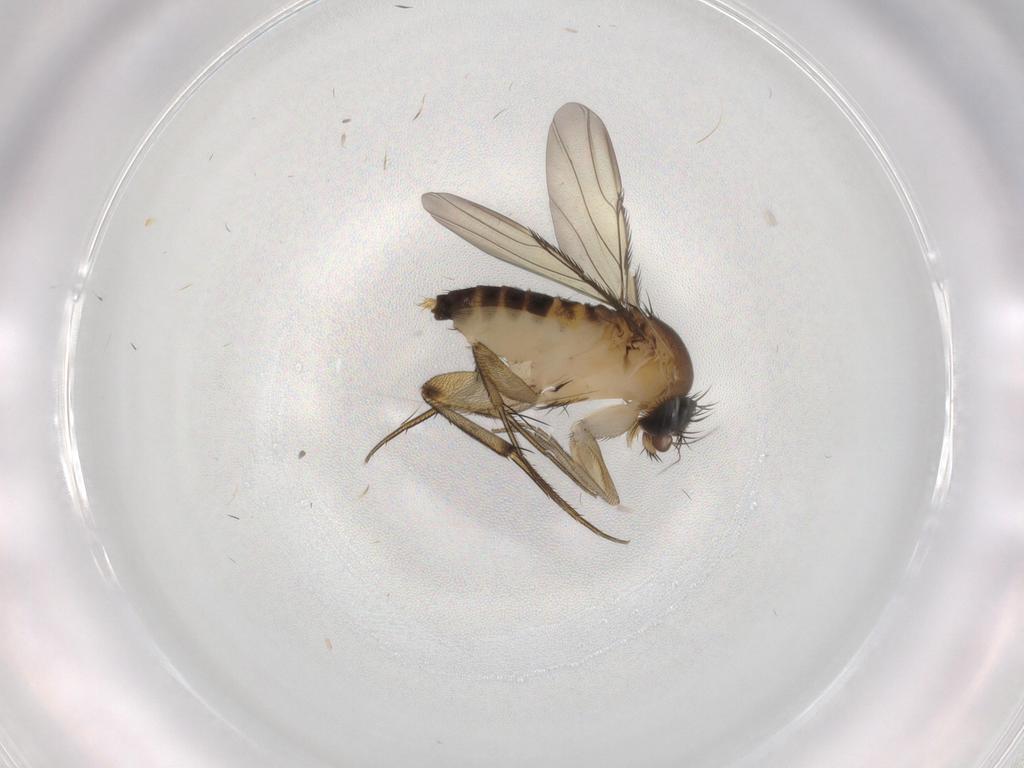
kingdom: Animalia
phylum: Arthropoda
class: Insecta
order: Diptera
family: Phoridae
